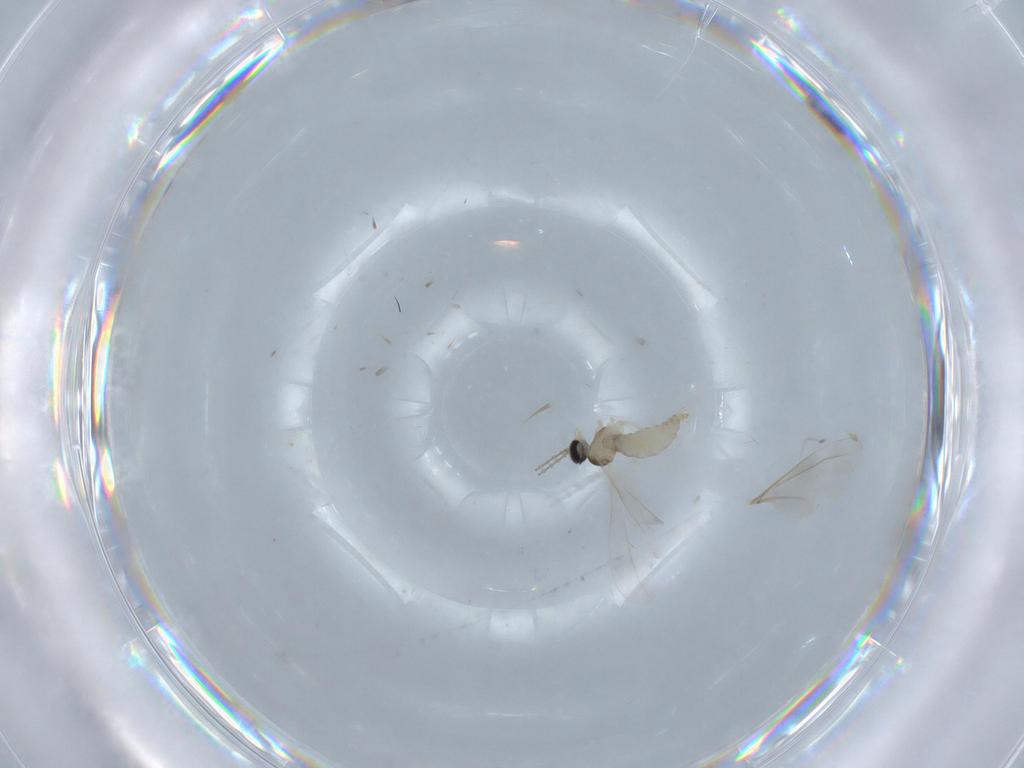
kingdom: Animalia
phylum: Arthropoda
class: Insecta
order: Diptera
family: Cecidomyiidae
